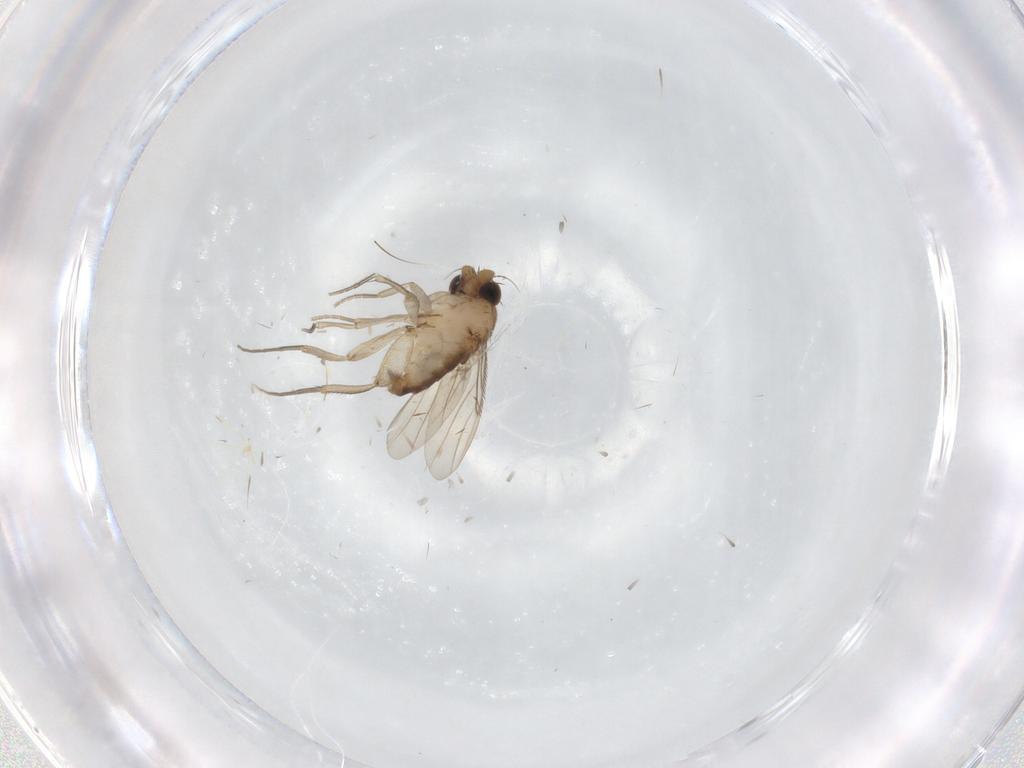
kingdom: Animalia
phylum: Arthropoda
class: Insecta
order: Diptera
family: Phoridae
